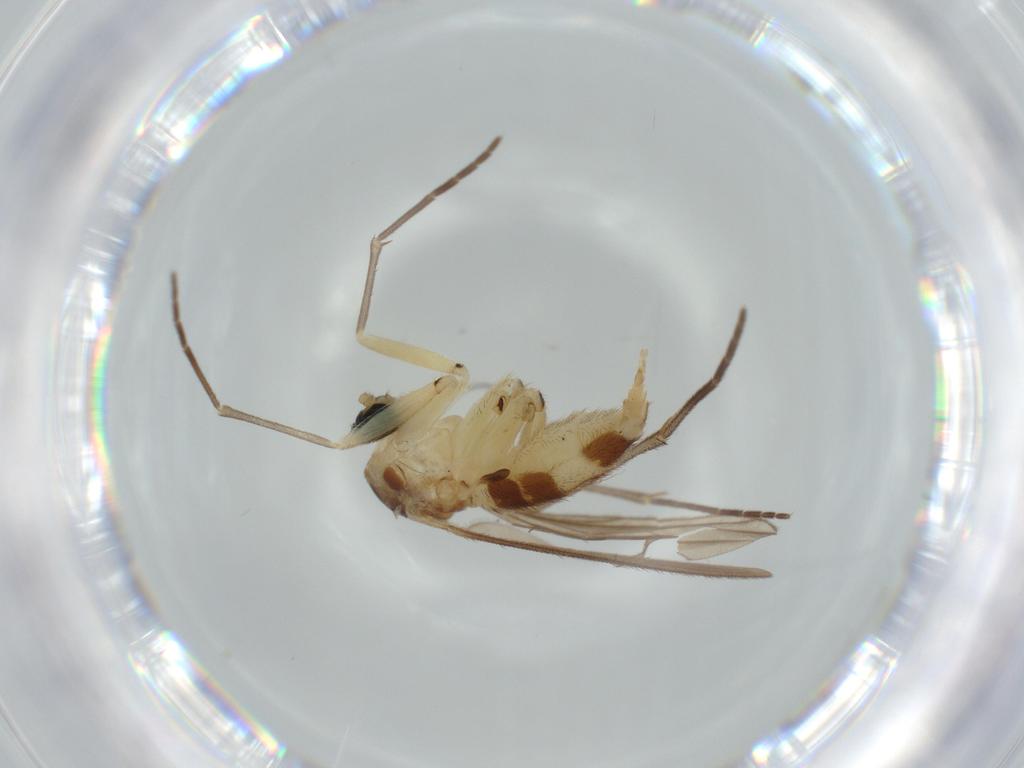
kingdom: Animalia
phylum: Arthropoda
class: Insecta
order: Diptera
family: Cecidomyiidae
